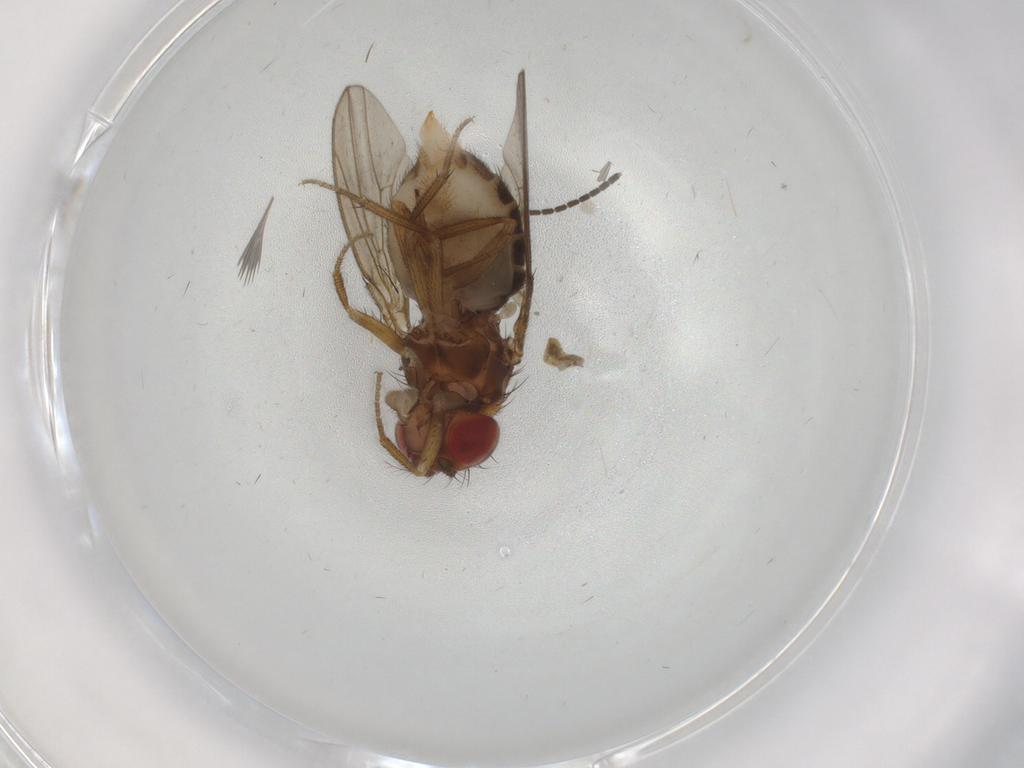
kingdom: Animalia
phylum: Arthropoda
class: Insecta
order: Diptera
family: Drosophilidae
